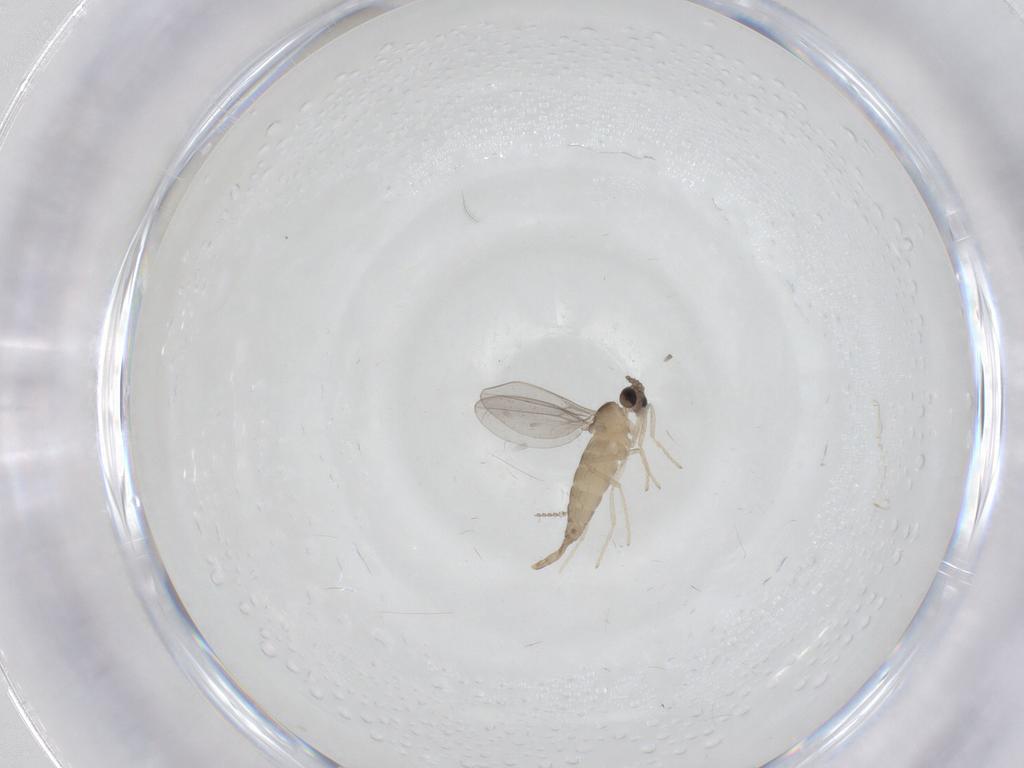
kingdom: Animalia
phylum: Arthropoda
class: Insecta
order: Diptera
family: Cecidomyiidae
